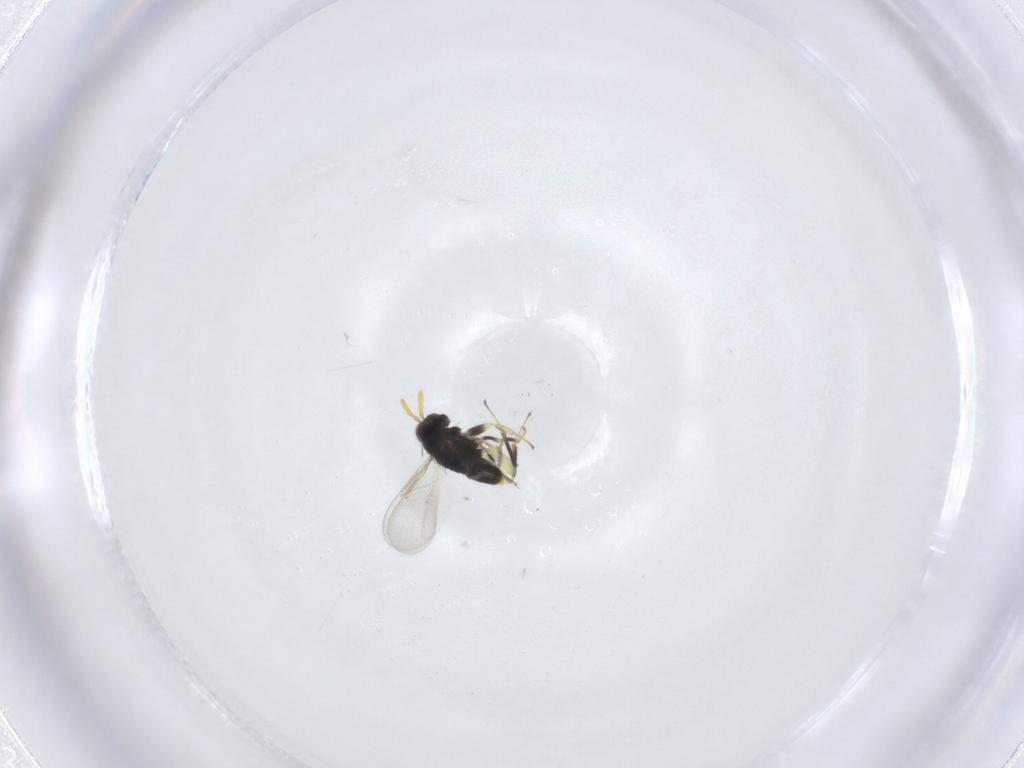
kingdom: Animalia
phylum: Arthropoda
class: Insecta
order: Hymenoptera
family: Aphelinidae
